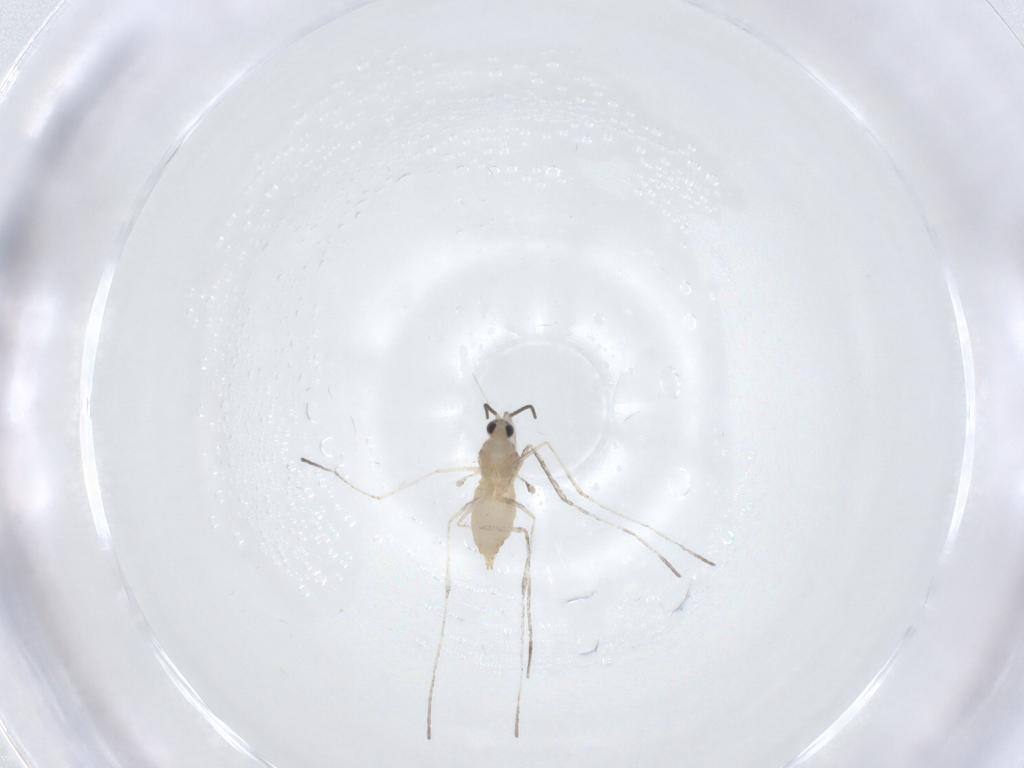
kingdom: Animalia
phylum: Arthropoda
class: Insecta
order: Diptera
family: Cecidomyiidae
